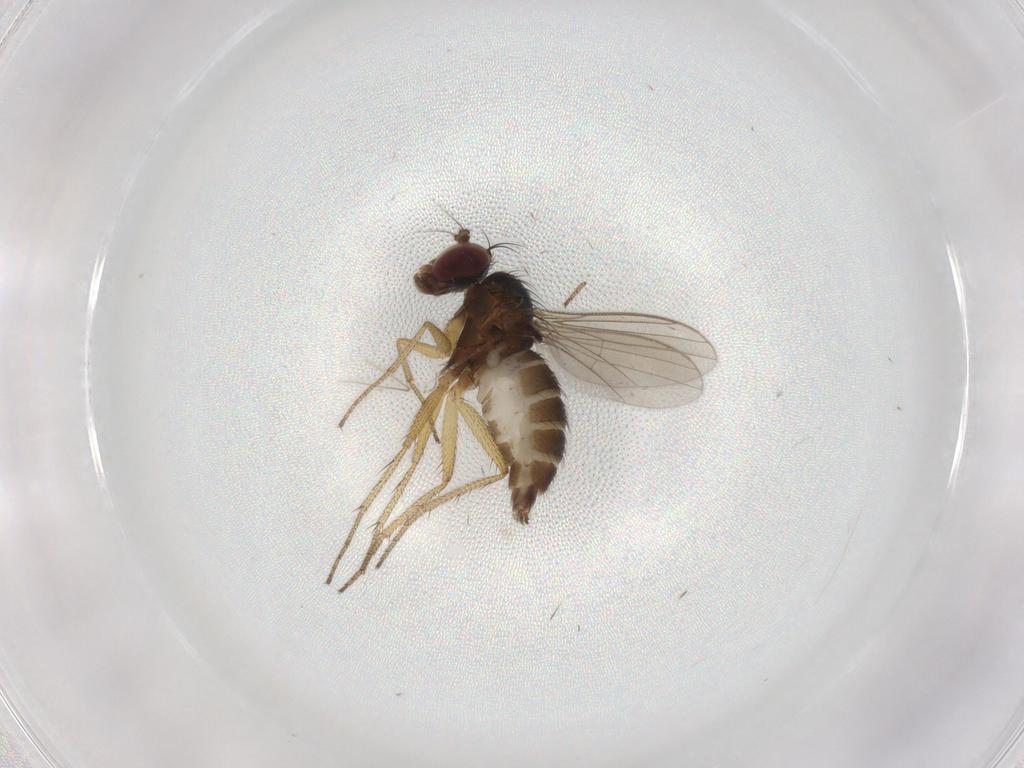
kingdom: Animalia
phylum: Arthropoda
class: Insecta
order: Diptera
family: Dolichopodidae
